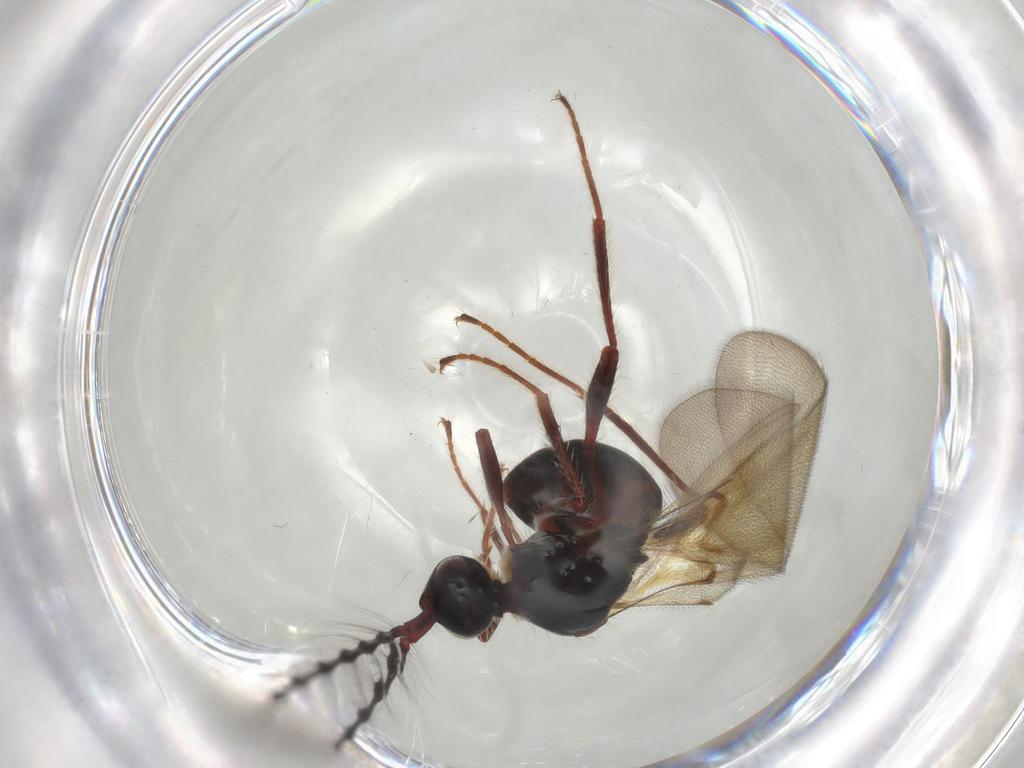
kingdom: Animalia
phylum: Arthropoda
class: Insecta
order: Hymenoptera
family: Diapriidae
